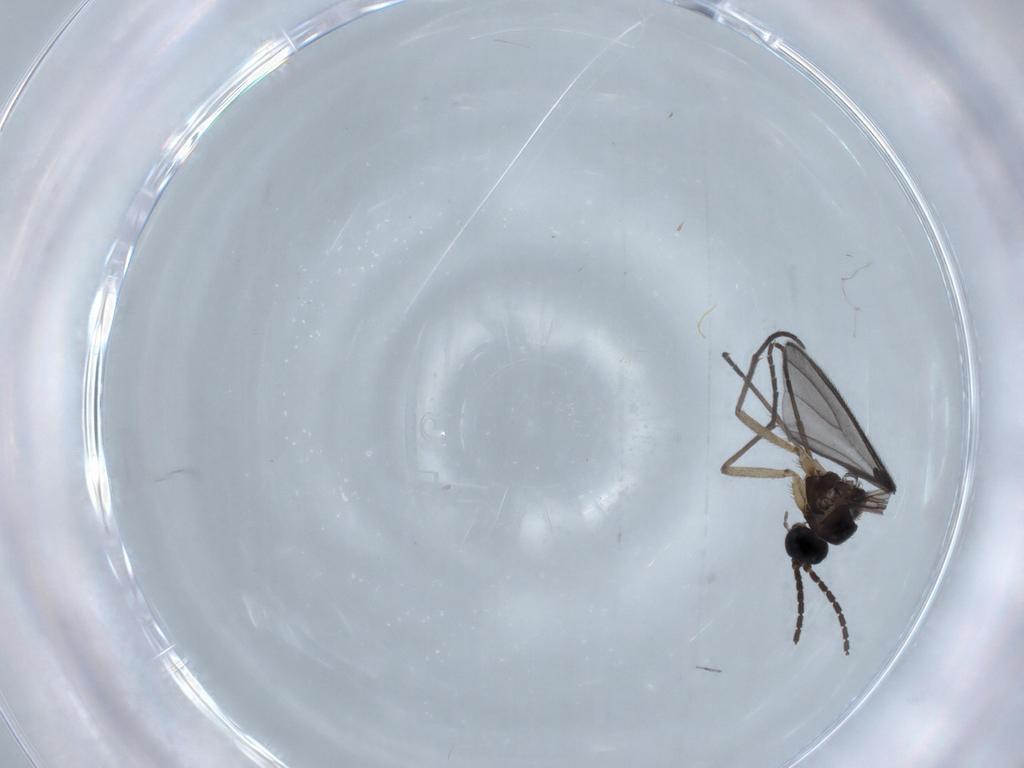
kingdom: Animalia
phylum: Arthropoda
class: Insecta
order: Diptera
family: Sciaridae
